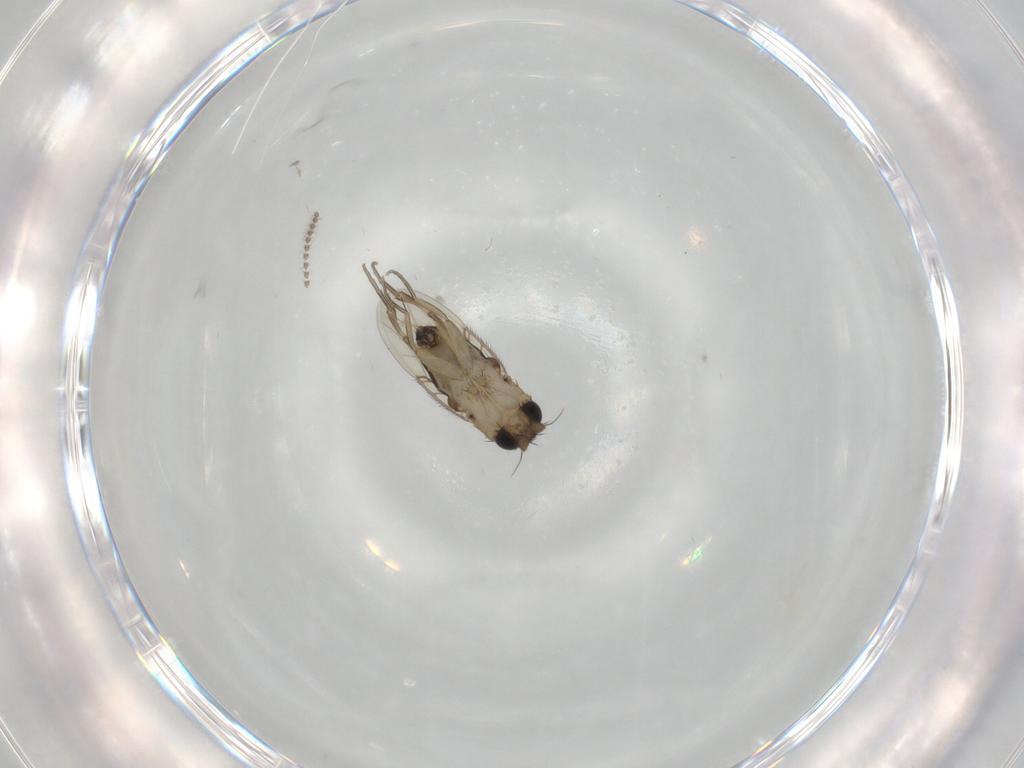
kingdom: Animalia
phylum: Arthropoda
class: Insecta
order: Diptera
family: Phoridae
